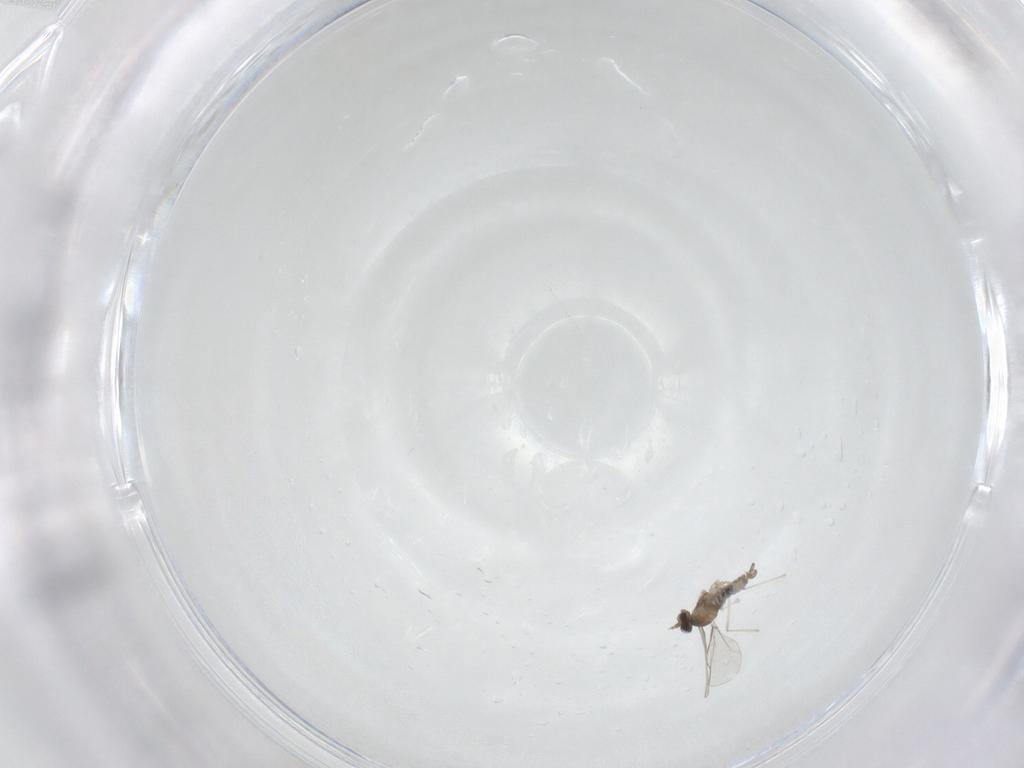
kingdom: Animalia
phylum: Arthropoda
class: Insecta
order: Diptera
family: Cecidomyiidae
